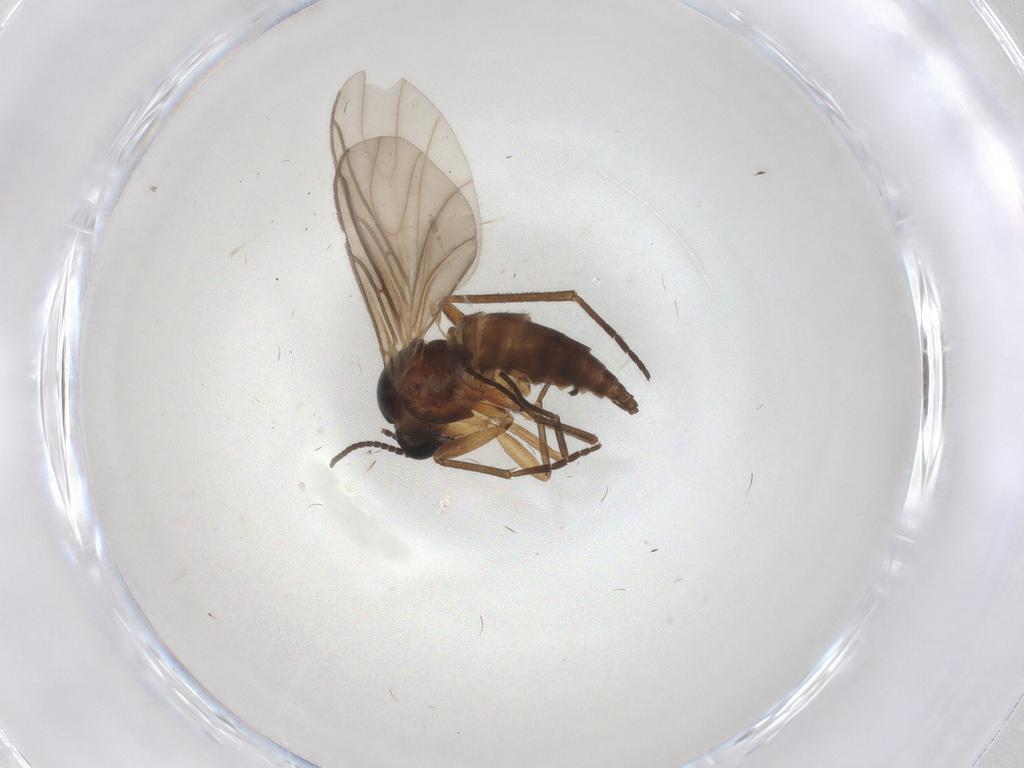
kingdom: Animalia
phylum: Arthropoda
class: Insecta
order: Diptera
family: Sciaridae
